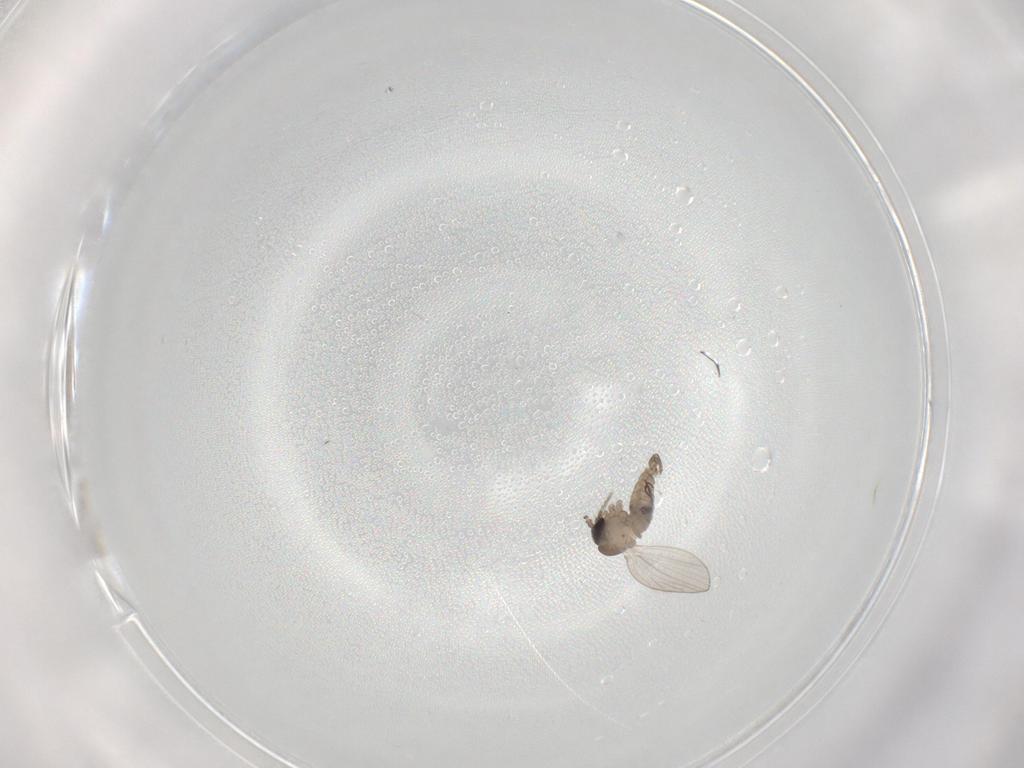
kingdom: Animalia
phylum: Arthropoda
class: Insecta
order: Diptera
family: Psychodidae
